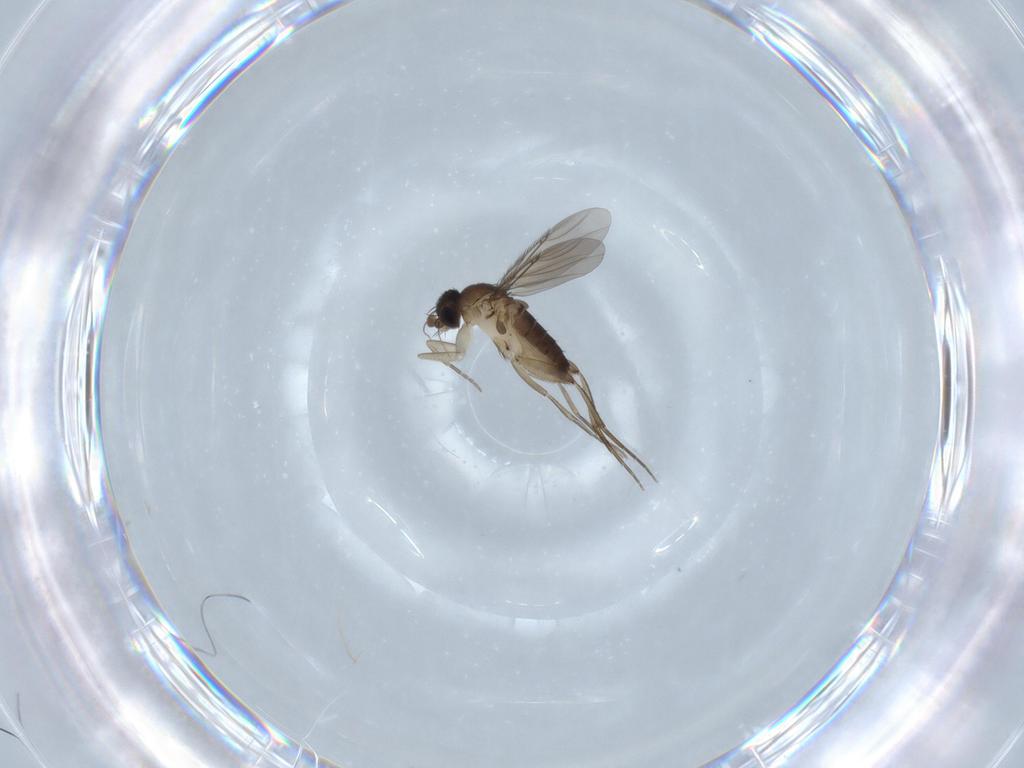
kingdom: Animalia
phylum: Arthropoda
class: Insecta
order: Diptera
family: Phoridae
